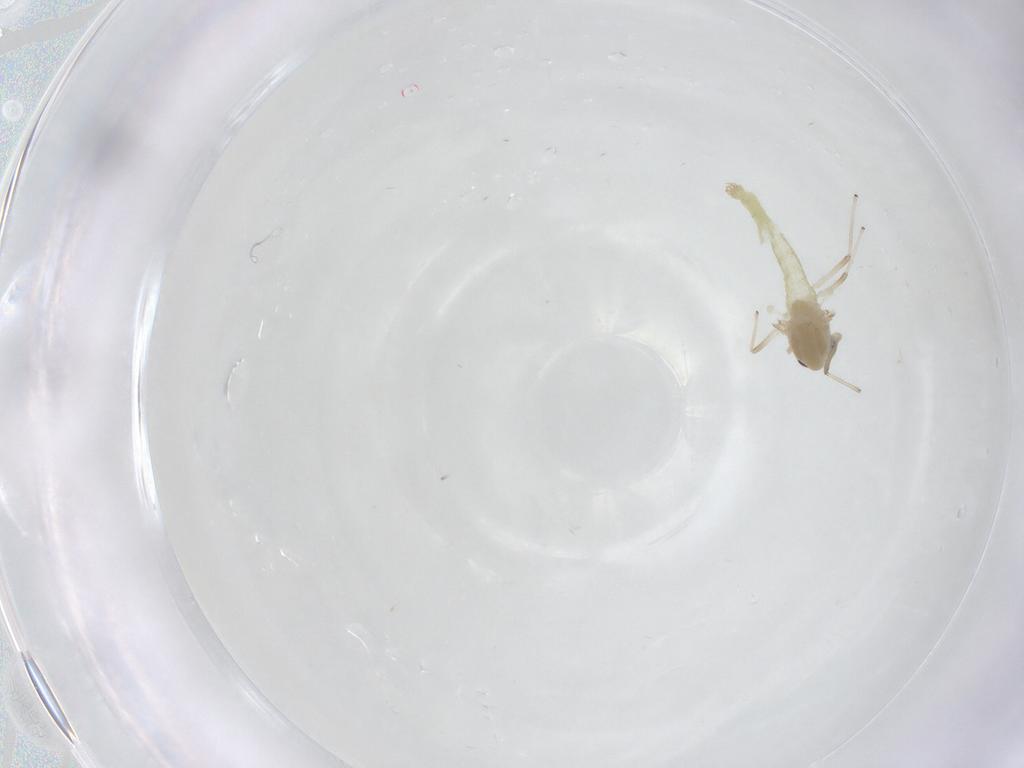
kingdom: Animalia
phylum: Arthropoda
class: Insecta
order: Diptera
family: Chironomidae
